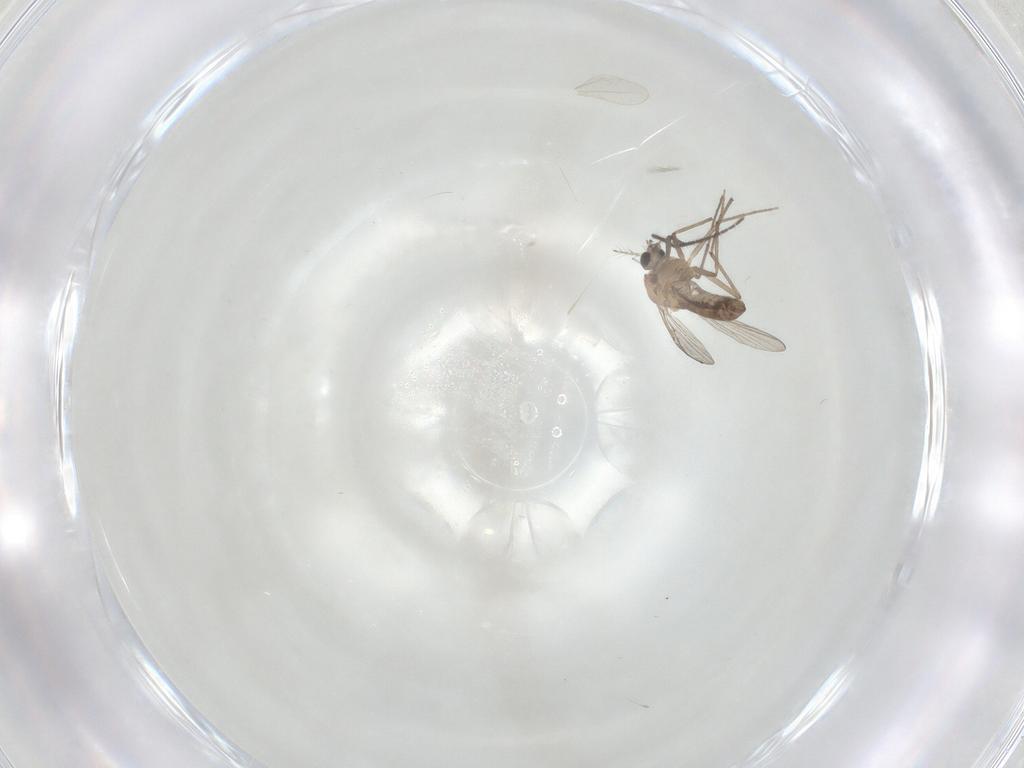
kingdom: Animalia
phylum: Arthropoda
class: Insecta
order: Diptera
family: Chironomidae
